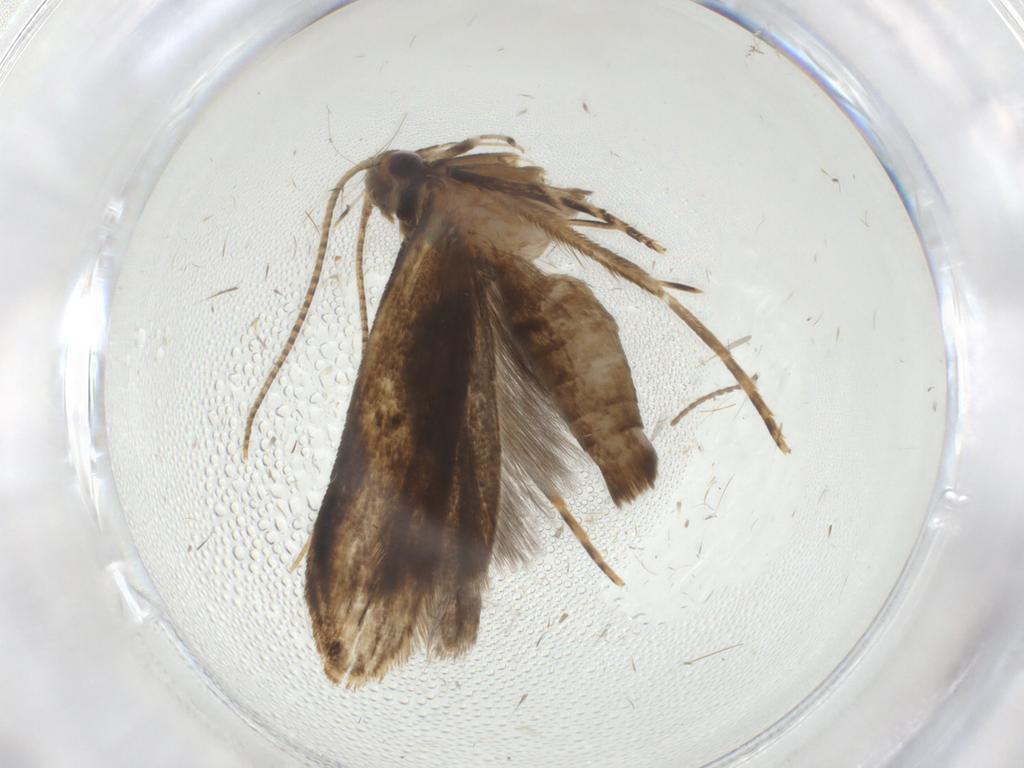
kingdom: Animalia
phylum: Arthropoda
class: Insecta
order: Lepidoptera
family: Gelechiidae
